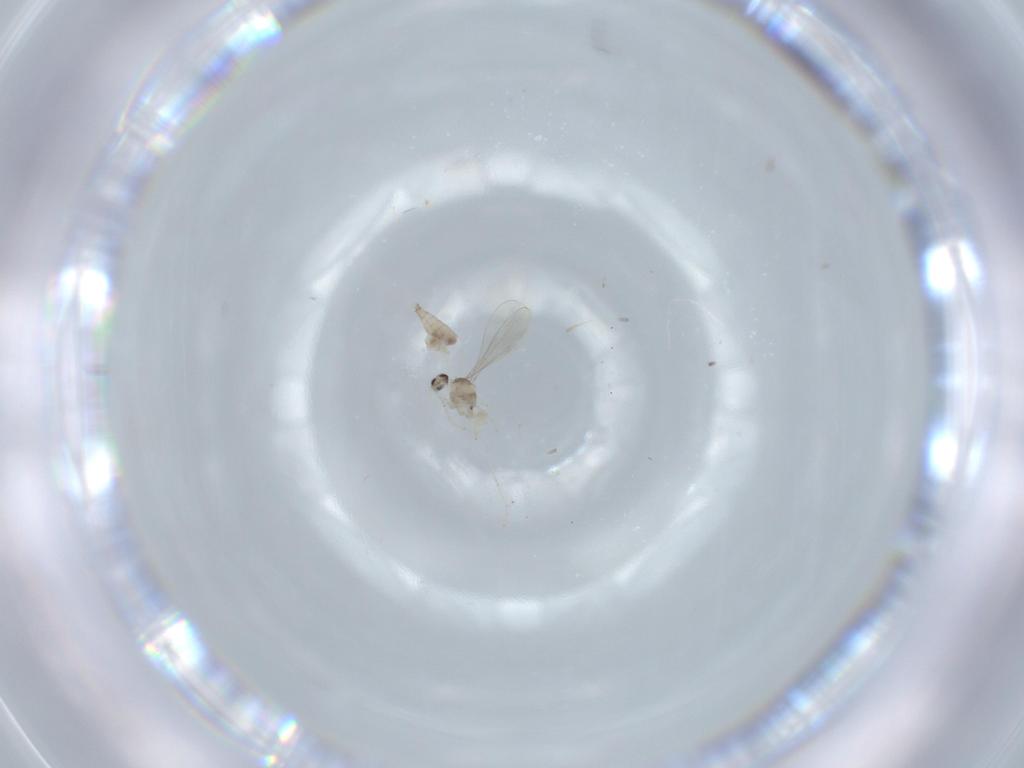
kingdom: Animalia
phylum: Arthropoda
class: Insecta
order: Diptera
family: Cecidomyiidae
